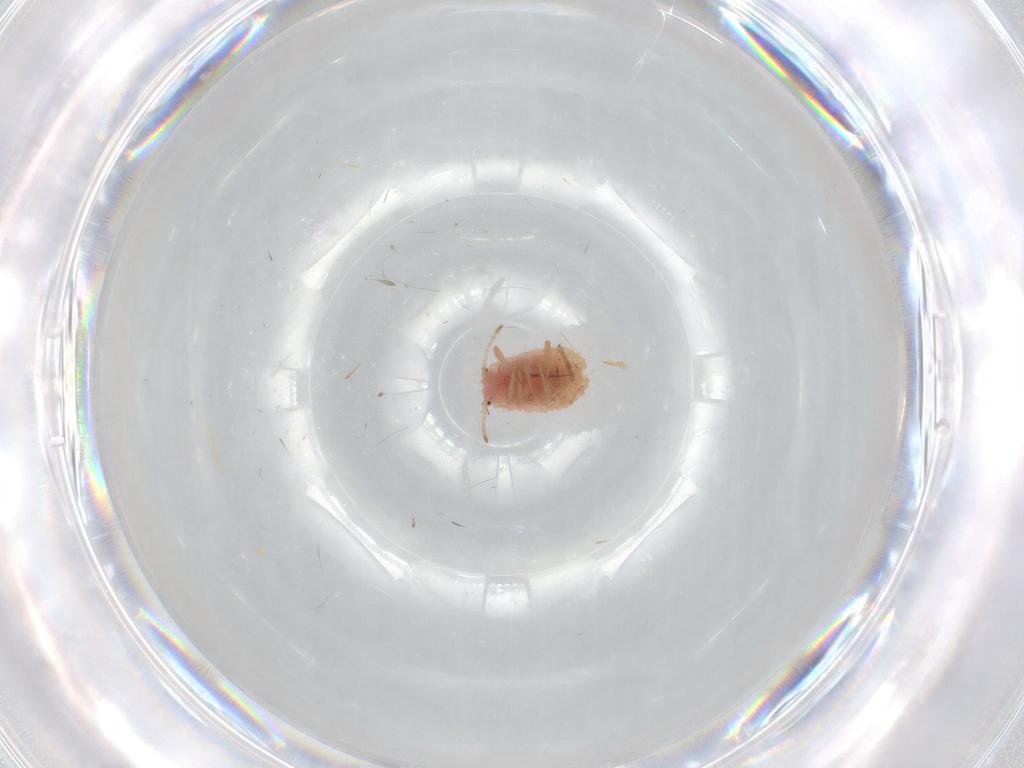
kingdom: Animalia
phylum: Arthropoda
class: Insecta
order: Hemiptera
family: Coccoidea_incertae_sedis
